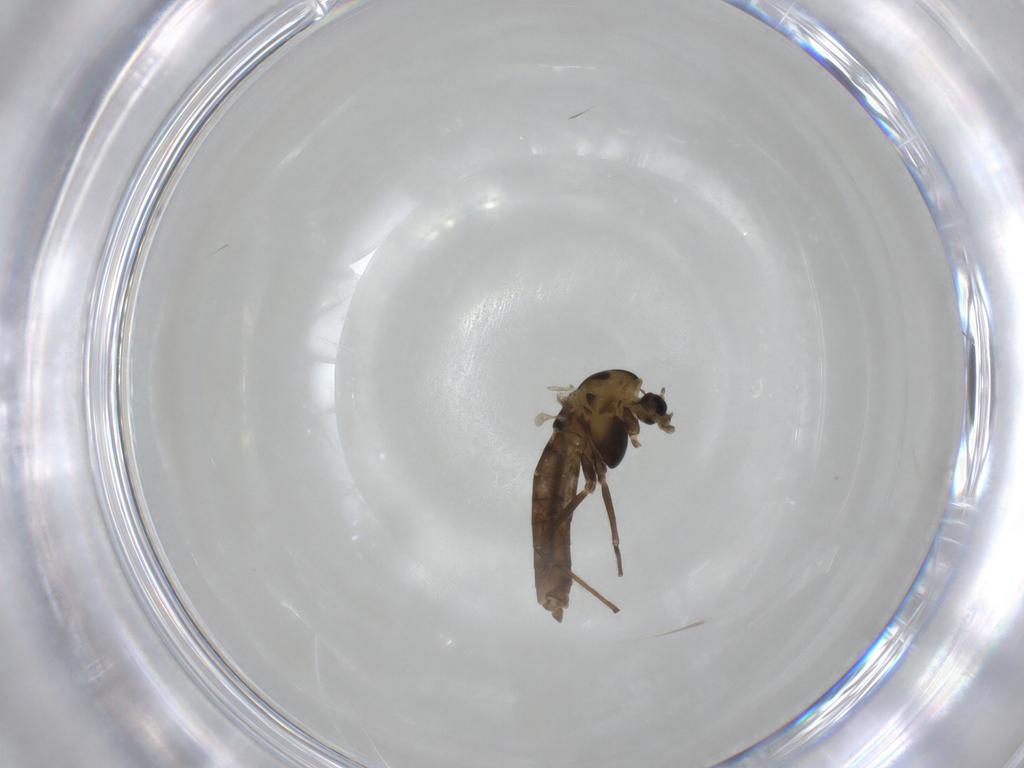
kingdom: Animalia
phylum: Arthropoda
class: Insecta
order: Diptera
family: Chironomidae
